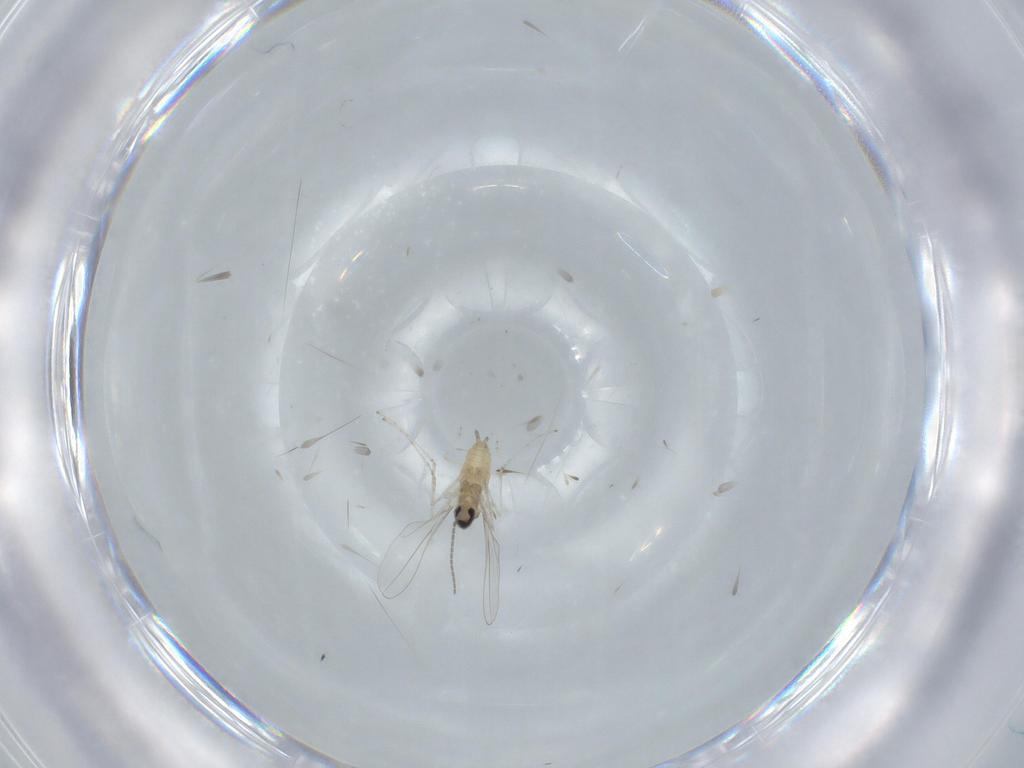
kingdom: Animalia
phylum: Arthropoda
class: Insecta
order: Diptera
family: Cecidomyiidae
